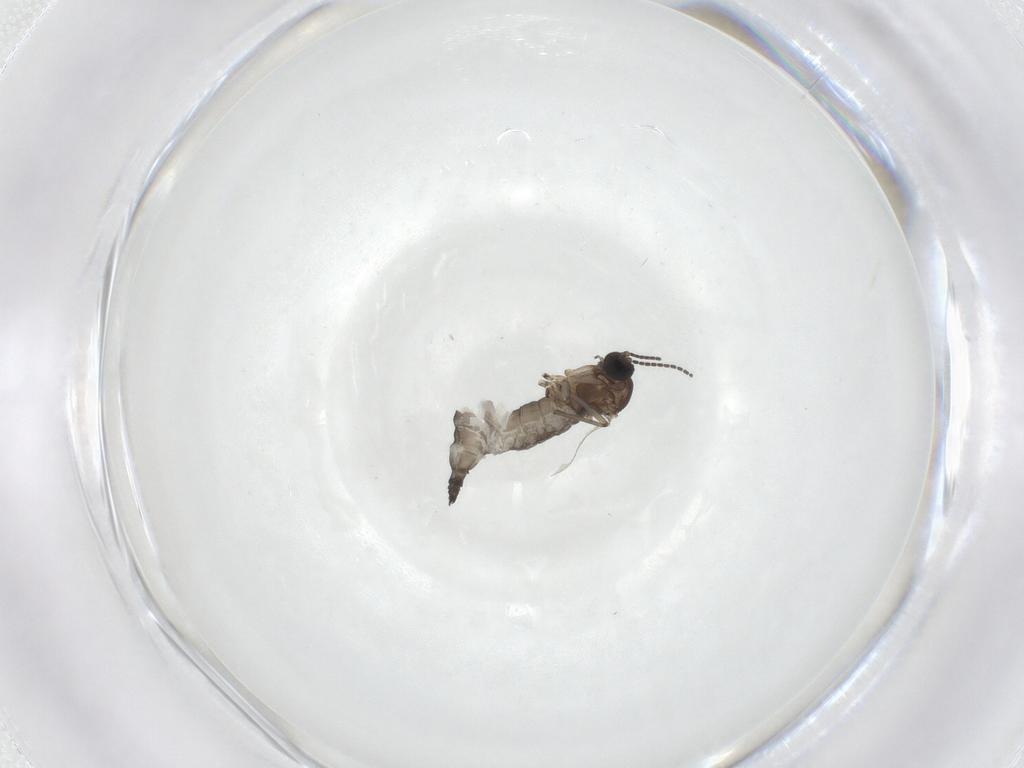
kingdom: Animalia
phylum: Arthropoda
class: Insecta
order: Diptera
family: Sciaridae
